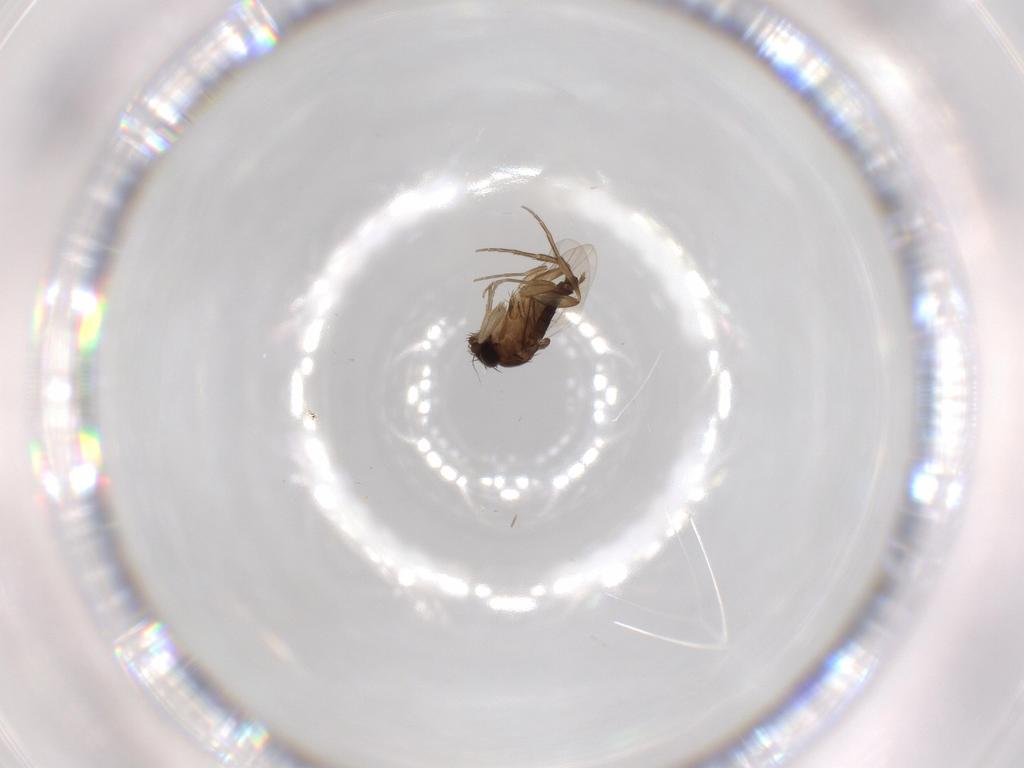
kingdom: Animalia
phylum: Arthropoda
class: Insecta
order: Diptera
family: Phoridae
